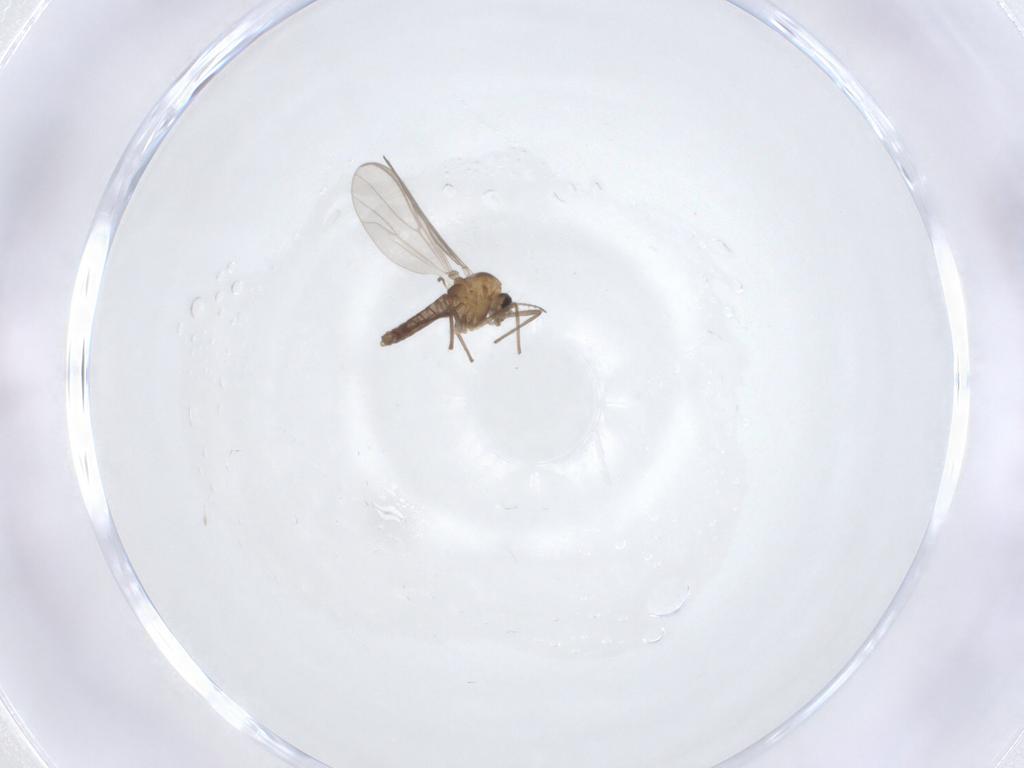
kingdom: Animalia
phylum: Arthropoda
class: Insecta
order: Diptera
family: Chironomidae
